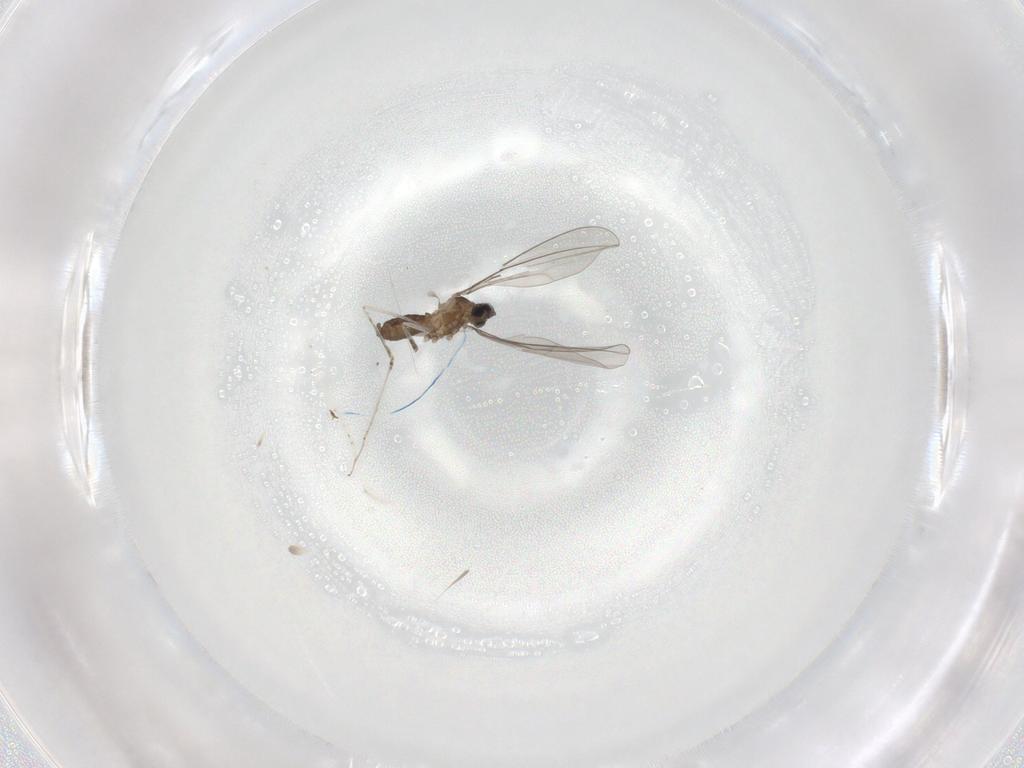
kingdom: Animalia
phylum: Arthropoda
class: Insecta
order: Diptera
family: Cecidomyiidae
